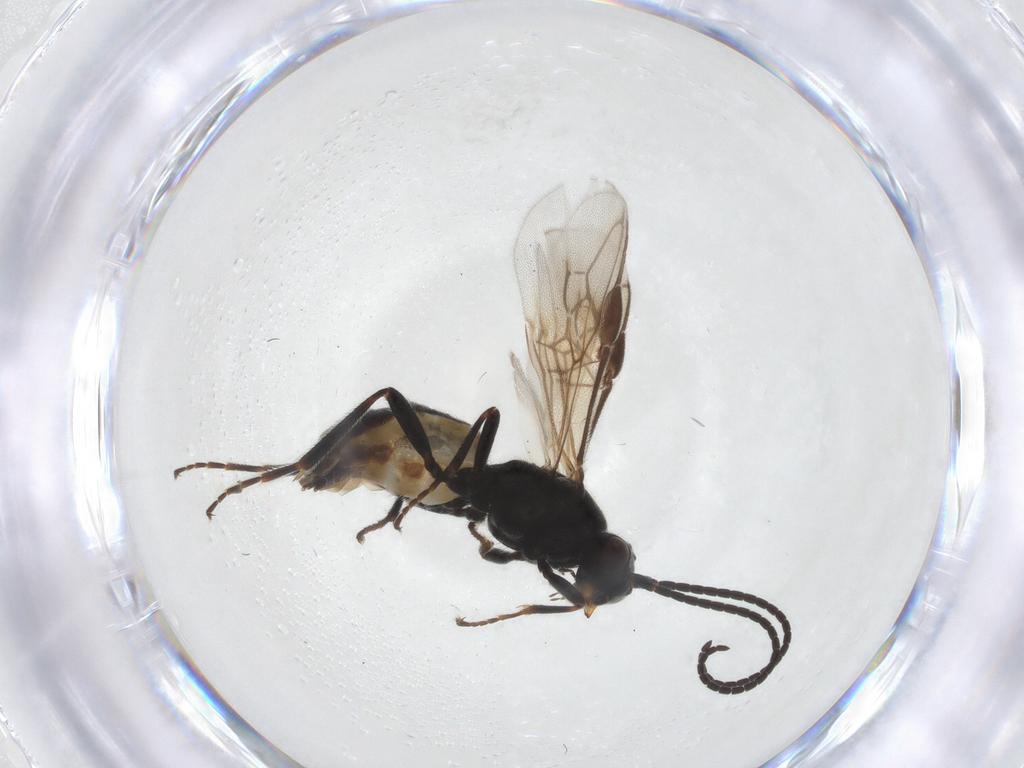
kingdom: Animalia
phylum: Arthropoda
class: Insecta
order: Hymenoptera
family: Braconidae
